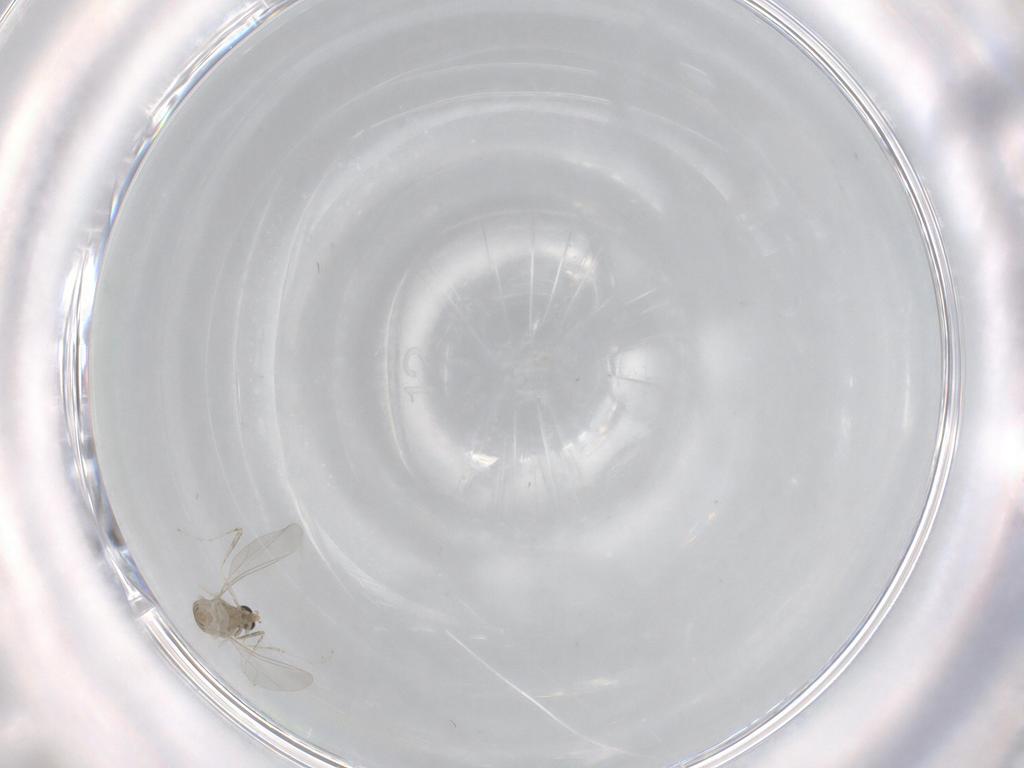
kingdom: Animalia
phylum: Arthropoda
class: Insecta
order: Diptera
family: Cecidomyiidae
